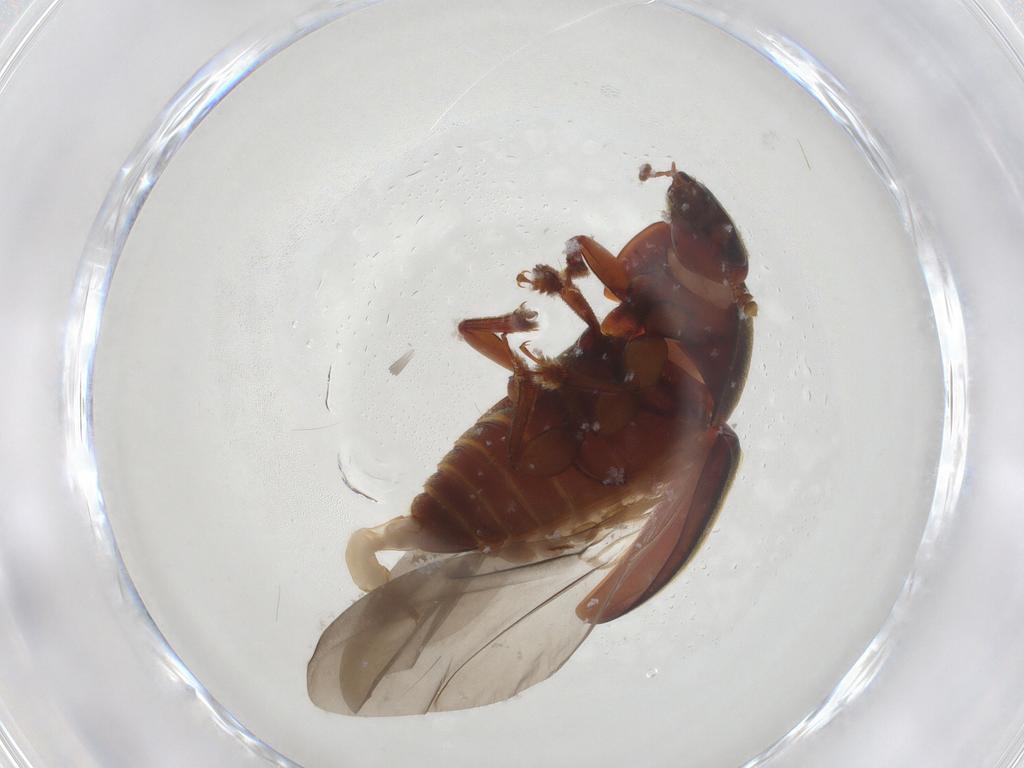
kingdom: Animalia
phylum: Arthropoda
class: Insecta
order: Coleoptera
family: Nitidulidae
